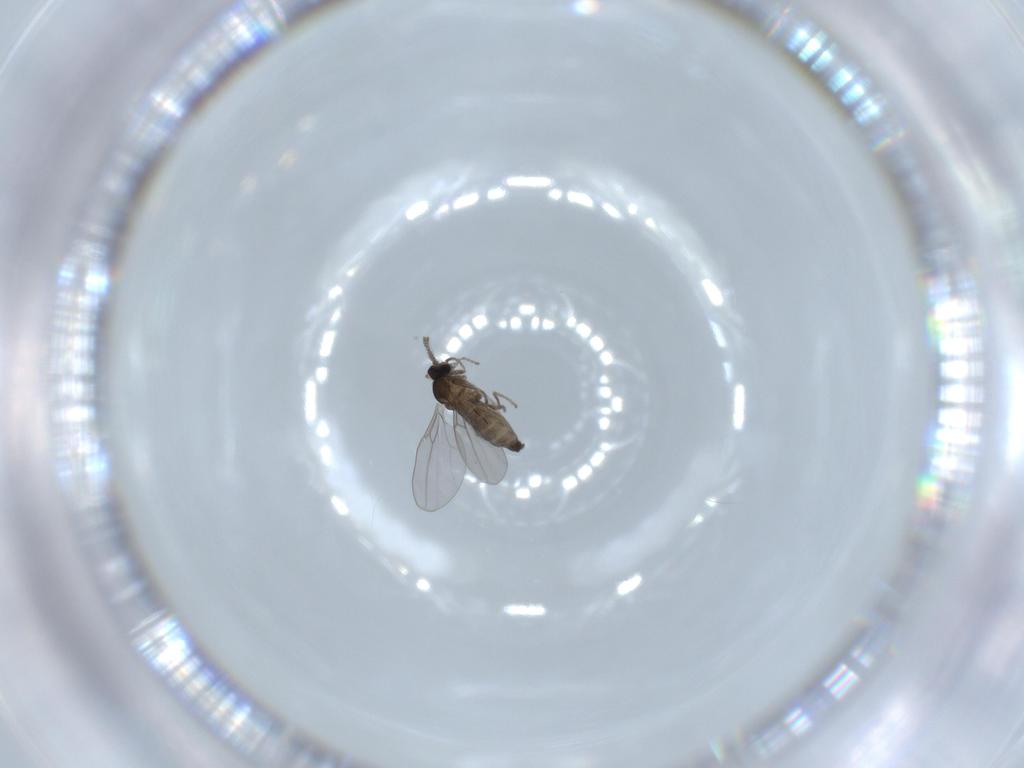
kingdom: Animalia
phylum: Arthropoda
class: Insecta
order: Diptera
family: Cecidomyiidae
